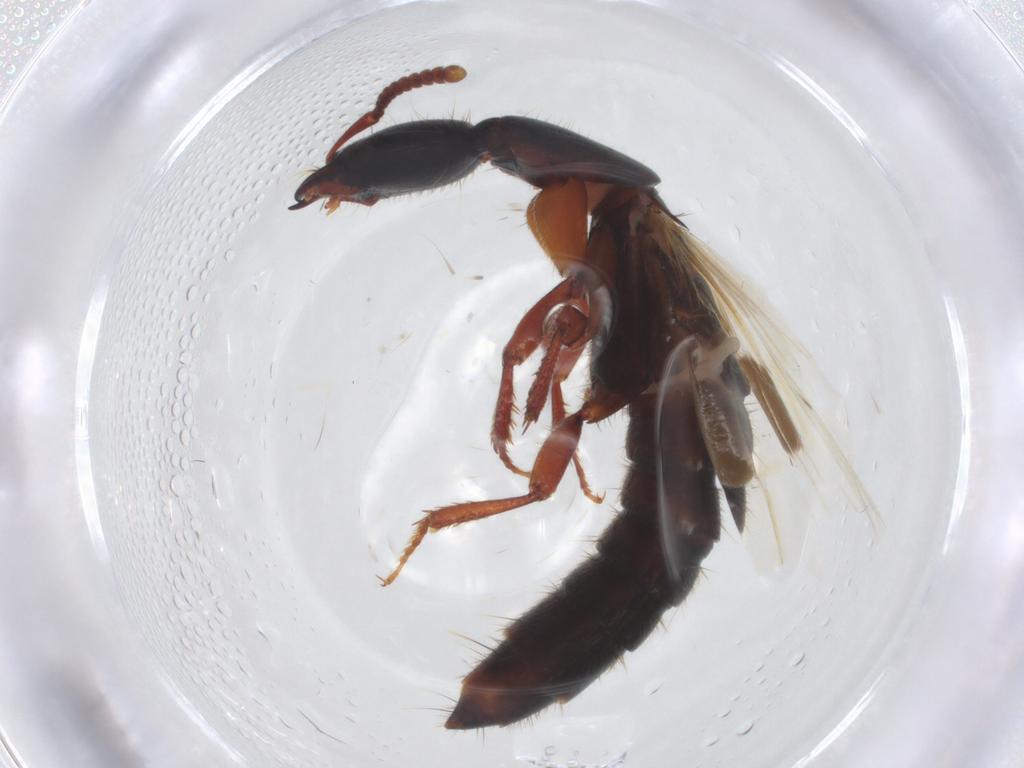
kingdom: Animalia
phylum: Arthropoda
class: Insecta
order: Coleoptera
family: Staphylinidae
